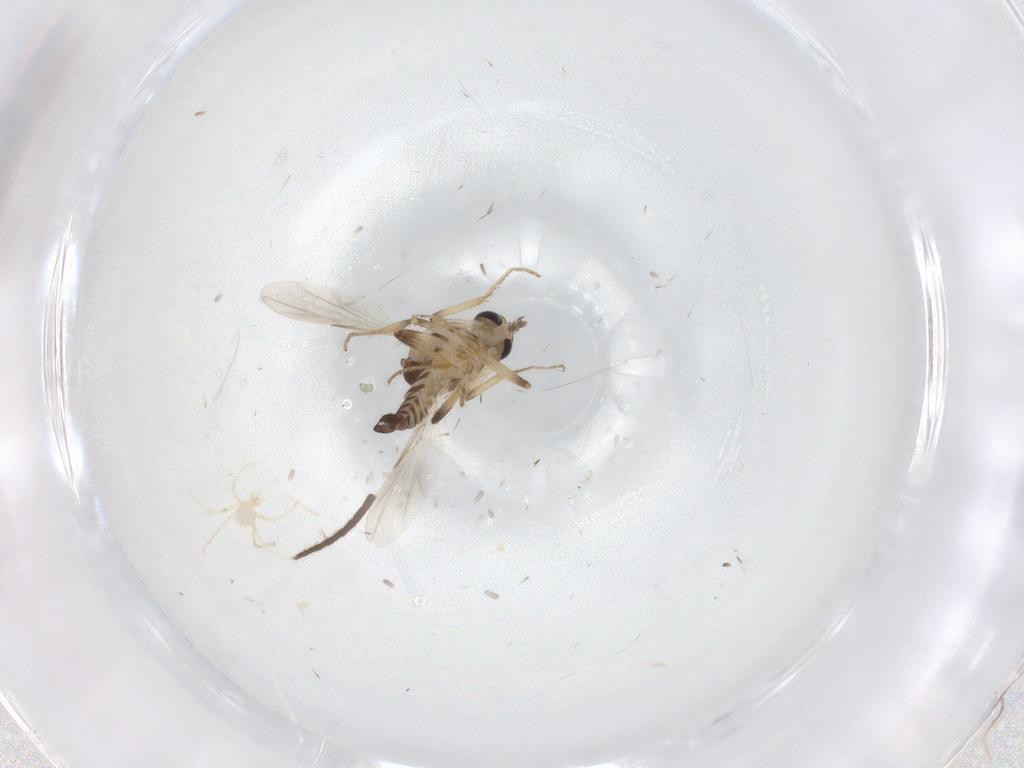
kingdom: Animalia
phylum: Arthropoda
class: Insecta
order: Diptera
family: Ceratopogonidae
